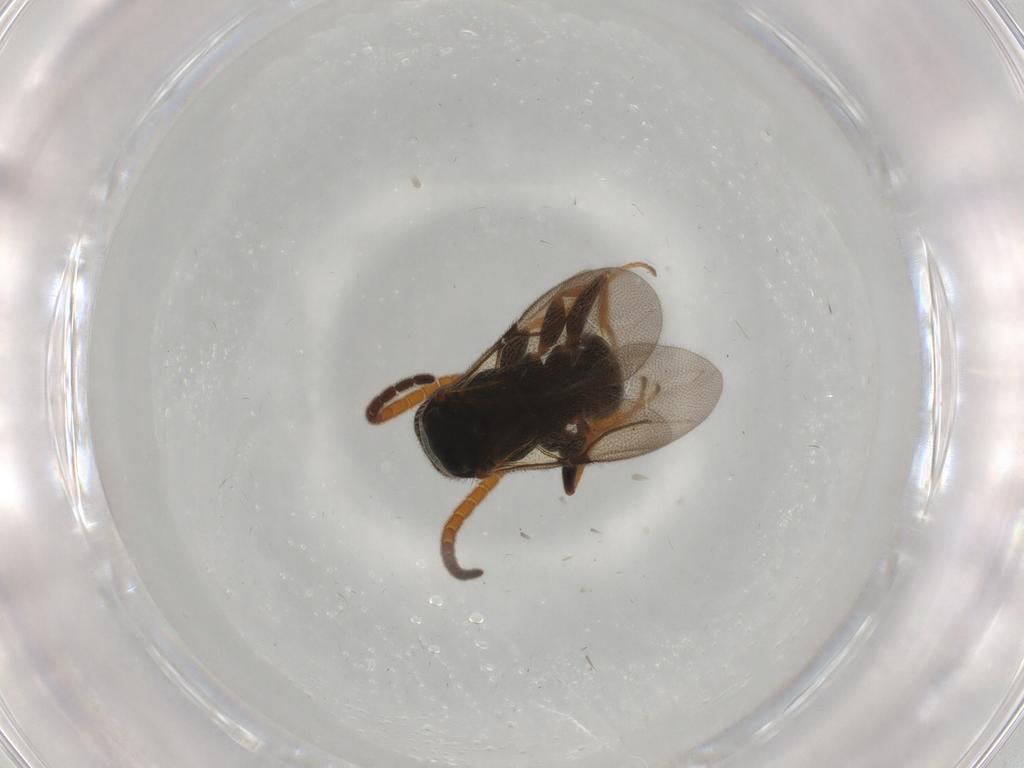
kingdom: Animalia
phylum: Arthropoda
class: Insecta
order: Hymenoptera
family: Bethylidae
